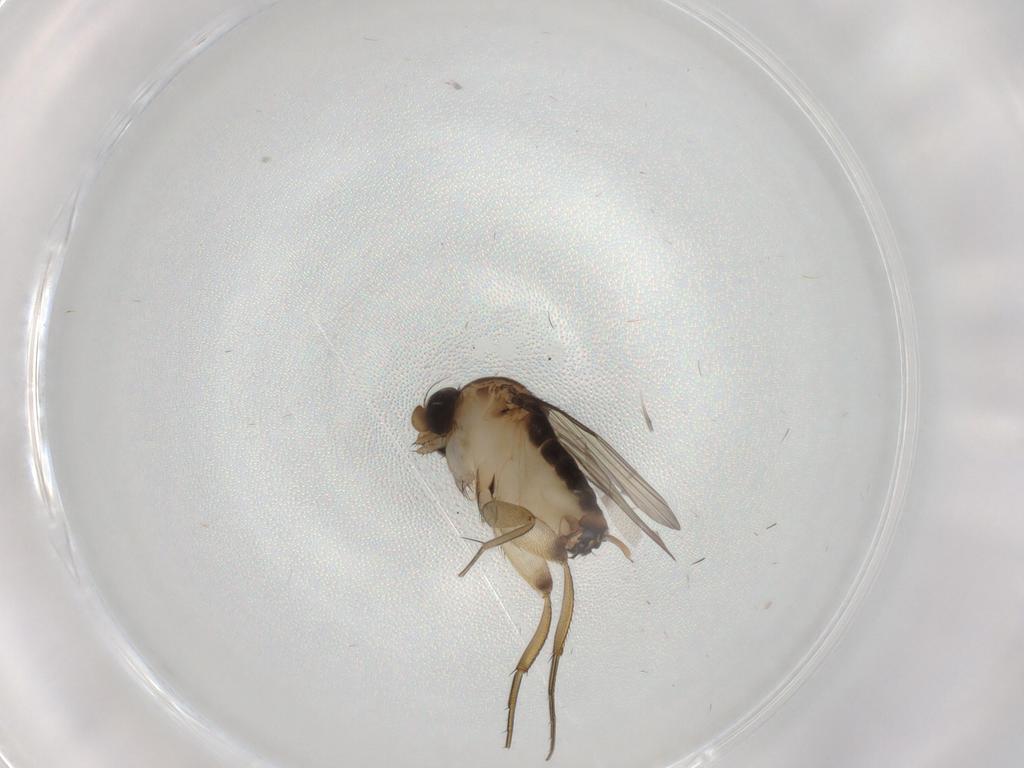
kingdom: Animalia
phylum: Arthropoda
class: Insecta
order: Diptera
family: Phoridae
